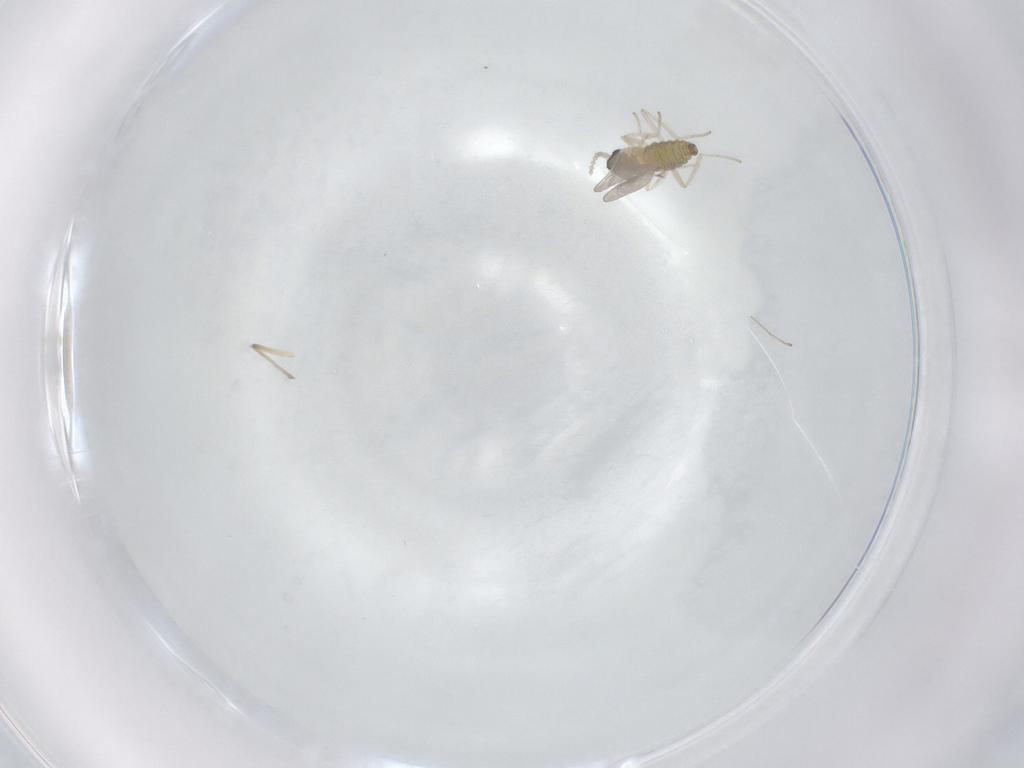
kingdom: Animalia
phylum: Arthropoda
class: Insecta
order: Diptera
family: Cecidomyiidae
